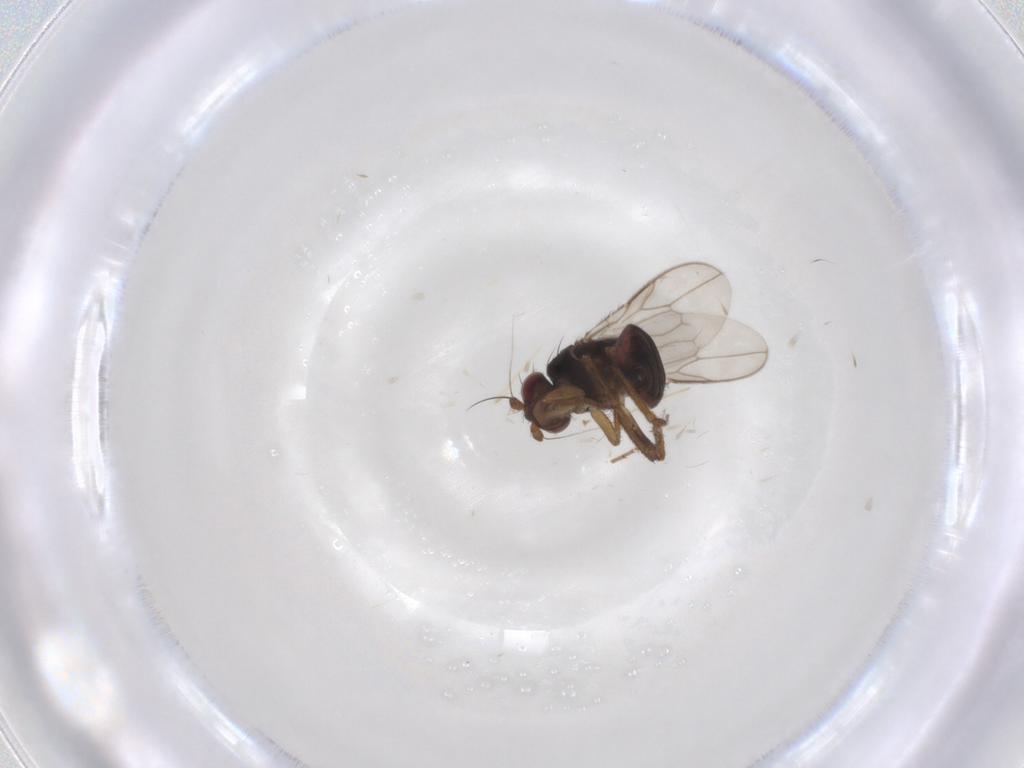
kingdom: Animalia
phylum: Arthropoda
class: Insecta
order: Diptera
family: Sphaeroceridae
